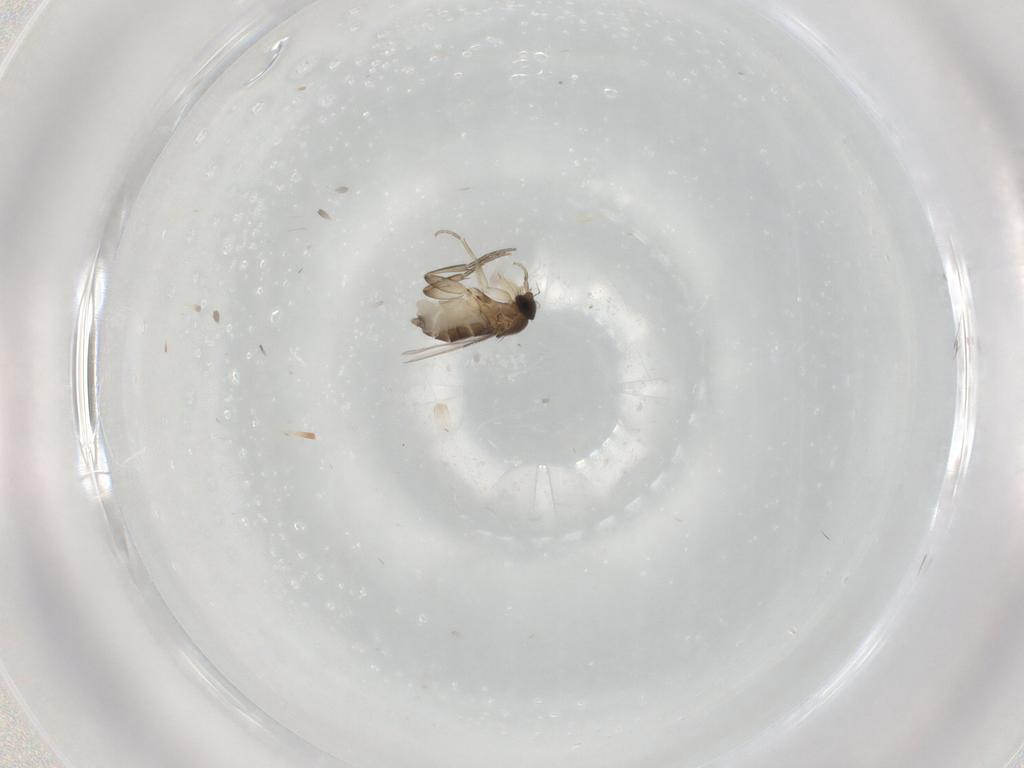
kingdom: Animalia
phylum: Arthropoda
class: Insecta
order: Diptera
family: Phoridae
